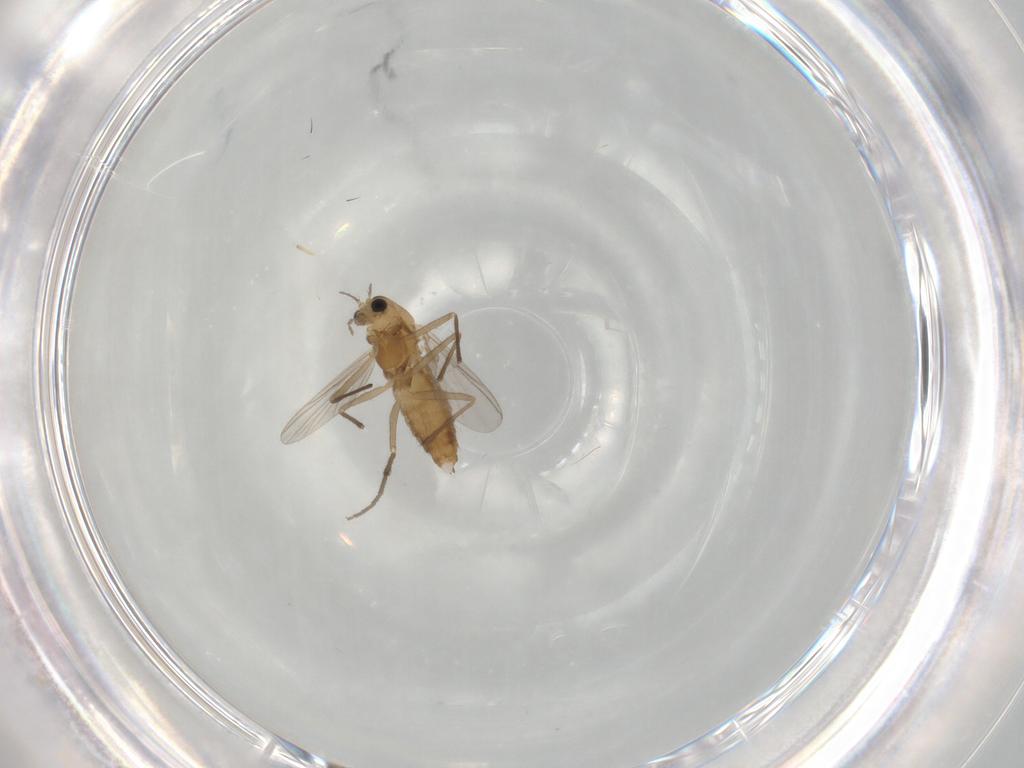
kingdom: Animalia
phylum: Arthropoda
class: Insecta
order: Diptera
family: Chironomidae
